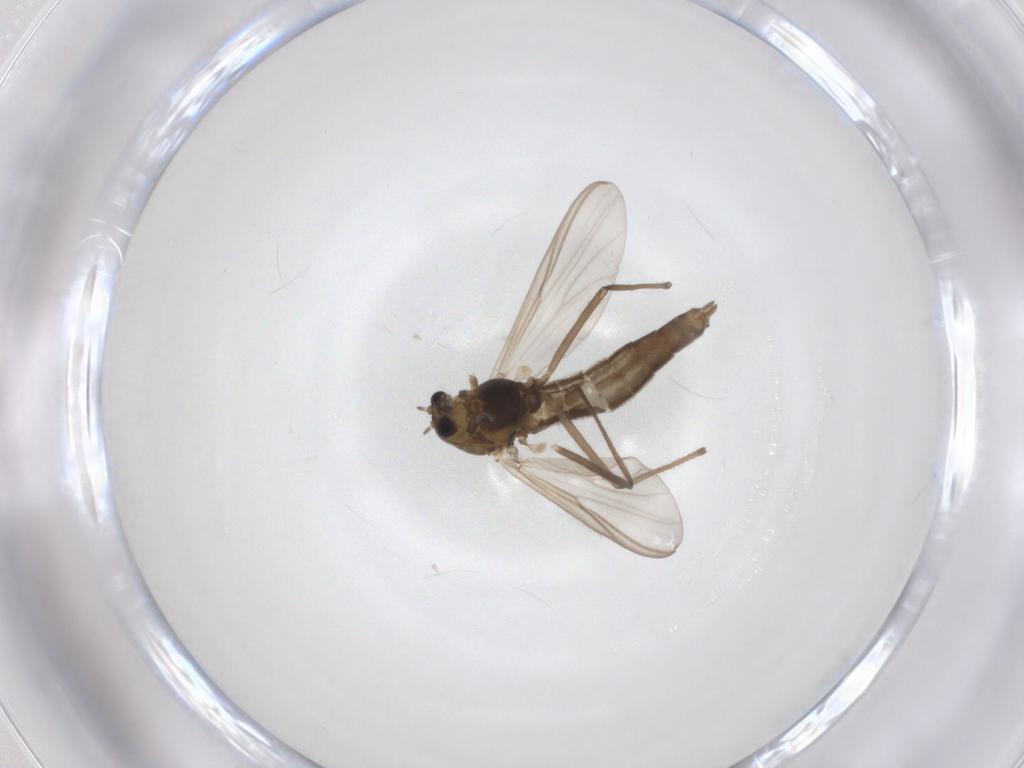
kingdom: Animalia
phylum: Arthropoda
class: Insecta
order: Diptera
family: Chironomidae
